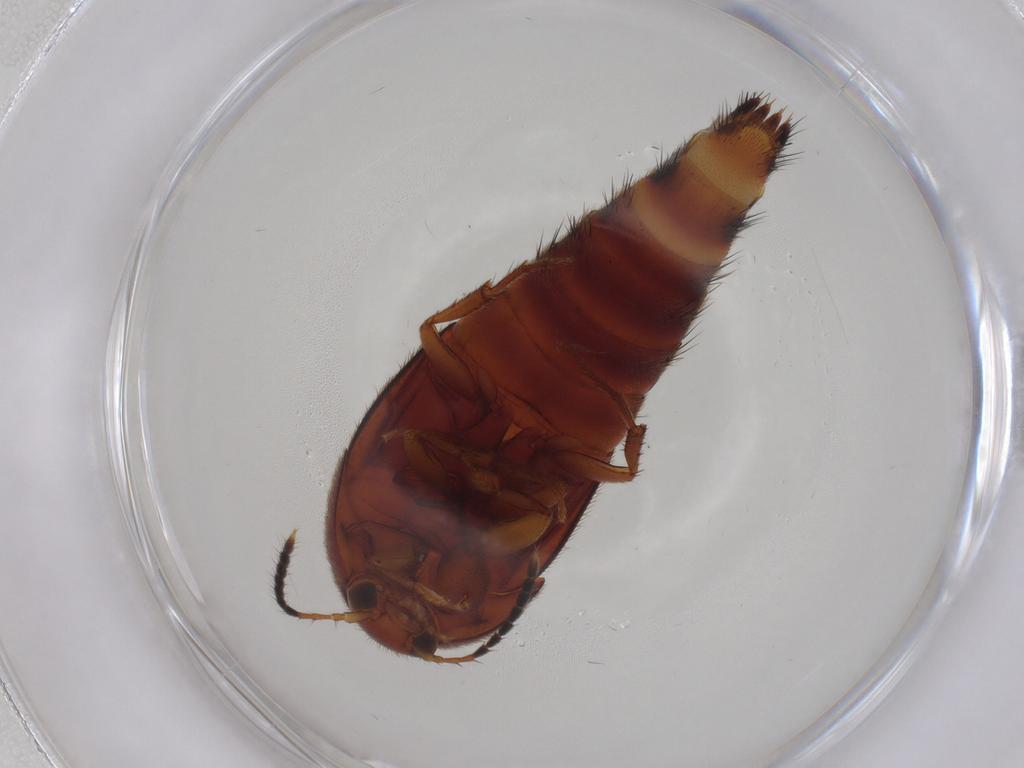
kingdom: Animalia
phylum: Arthropoda
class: Insecta
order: Coleoptera
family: Staphylinidae
